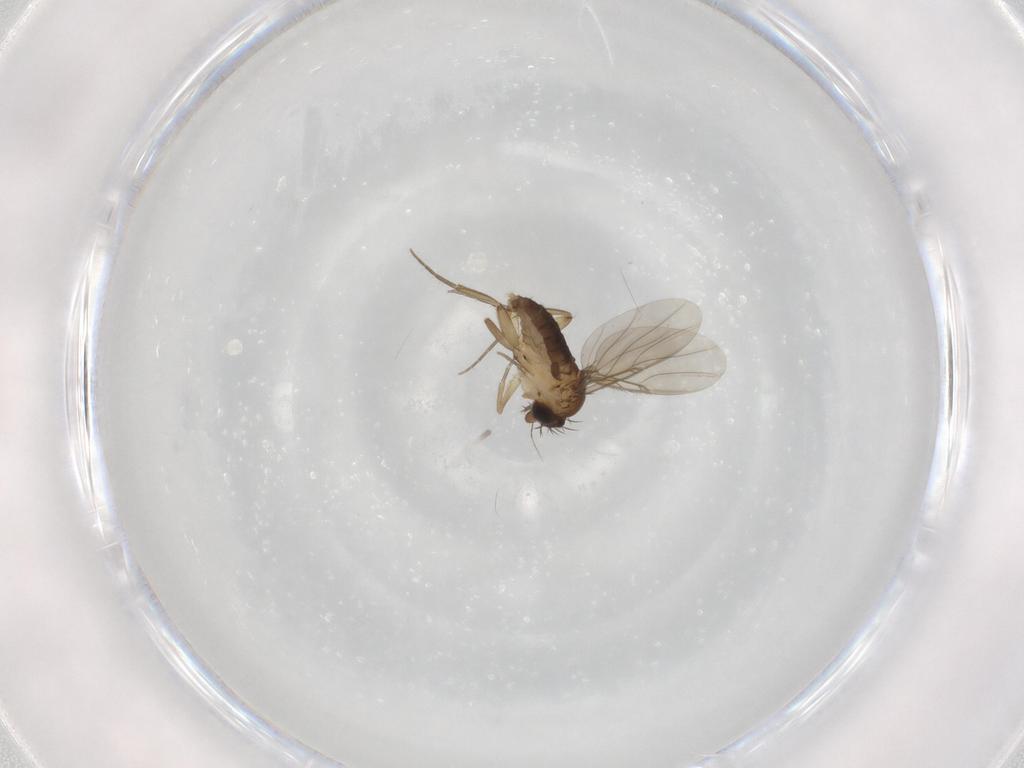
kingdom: Animalia
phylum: Arthropoda
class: Insecta
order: Diptera
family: Phoridae
